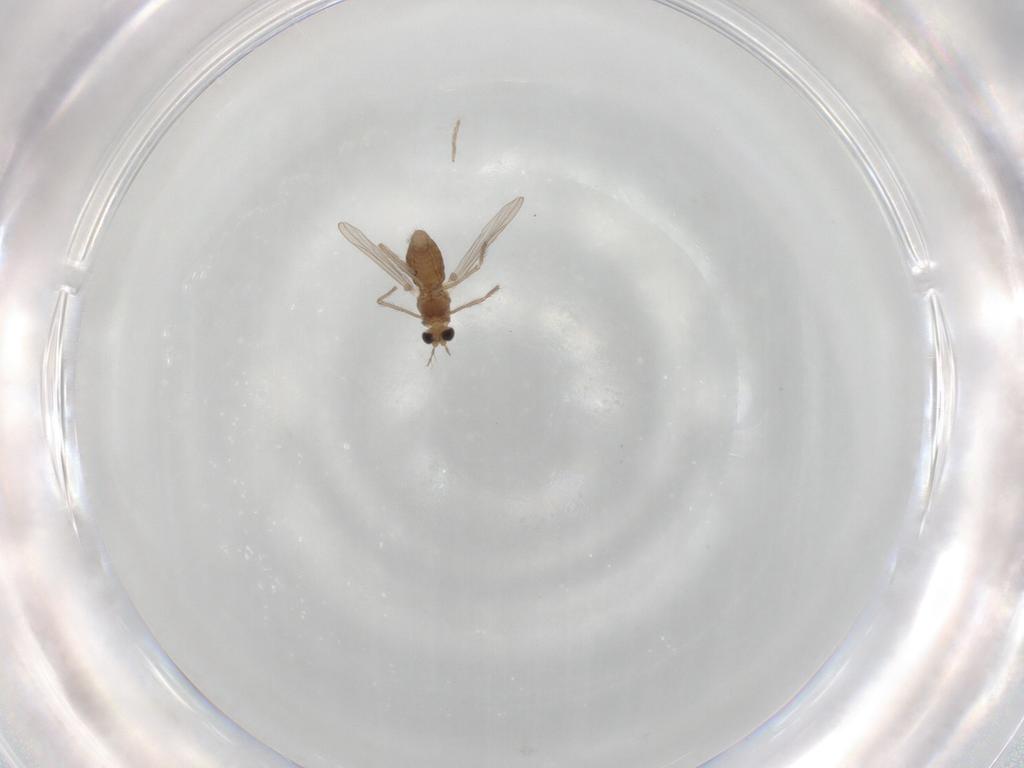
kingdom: Animalia
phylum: Arthropoda
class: Insecta
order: Diptera
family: Chironomidae
